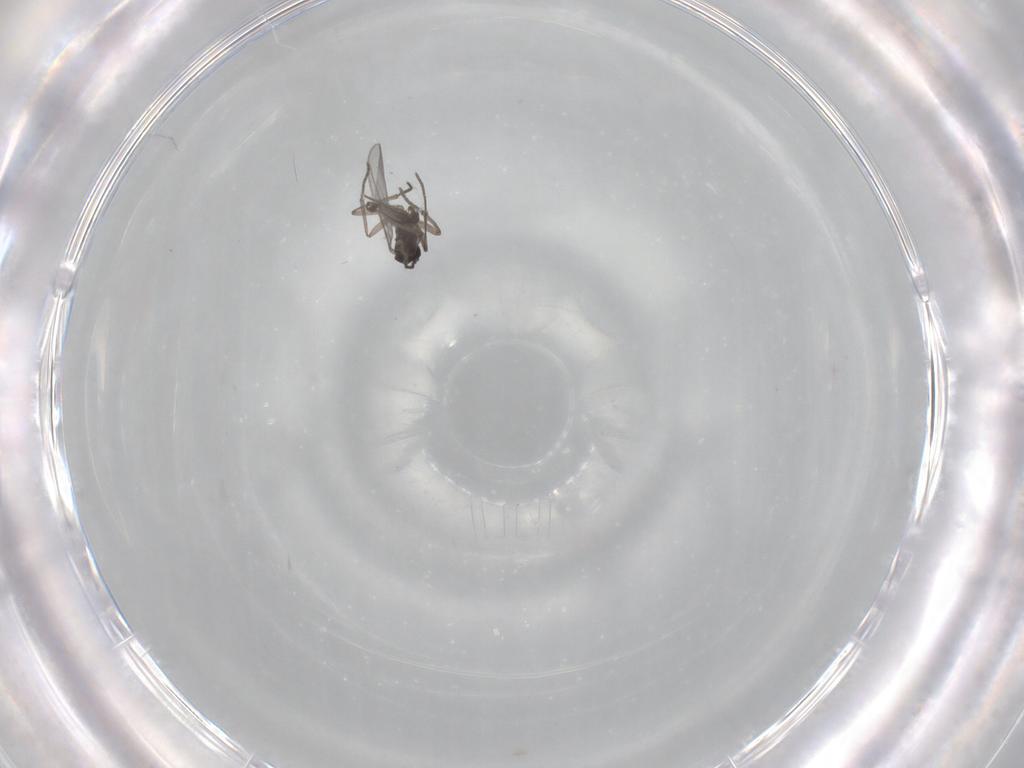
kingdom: Animalia
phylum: Arthropoda
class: Insecta
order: Diptera
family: Sciaridae
